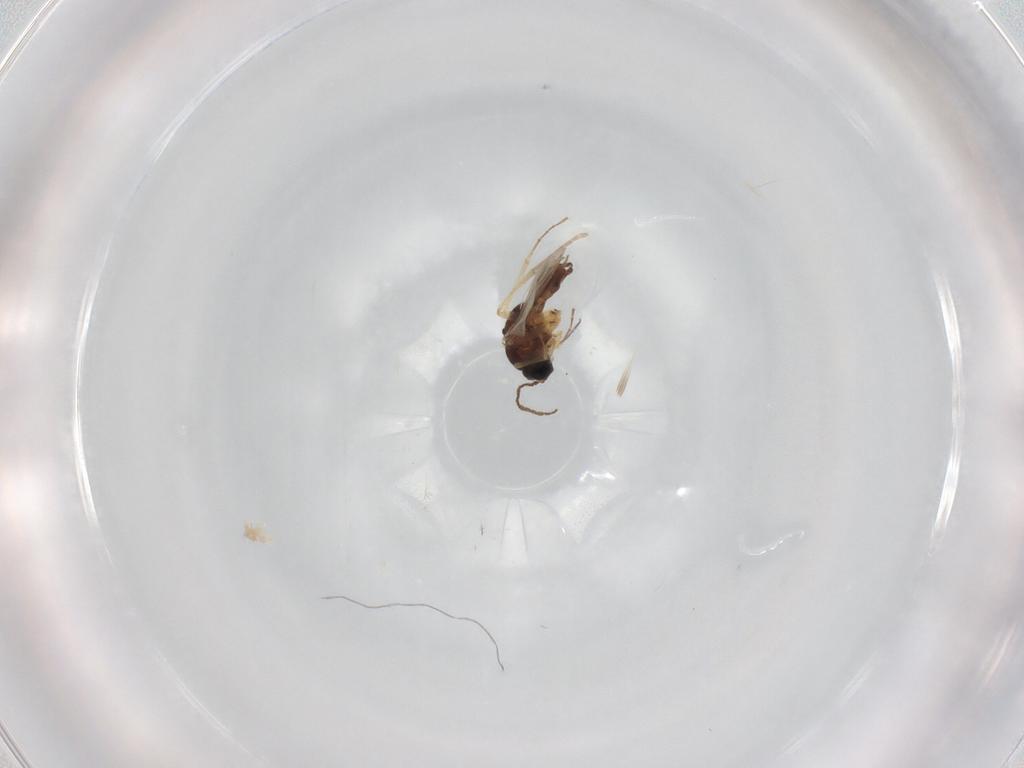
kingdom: Animalia
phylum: Arthropoda
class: Insecta
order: Diptera
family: Sciaridae
